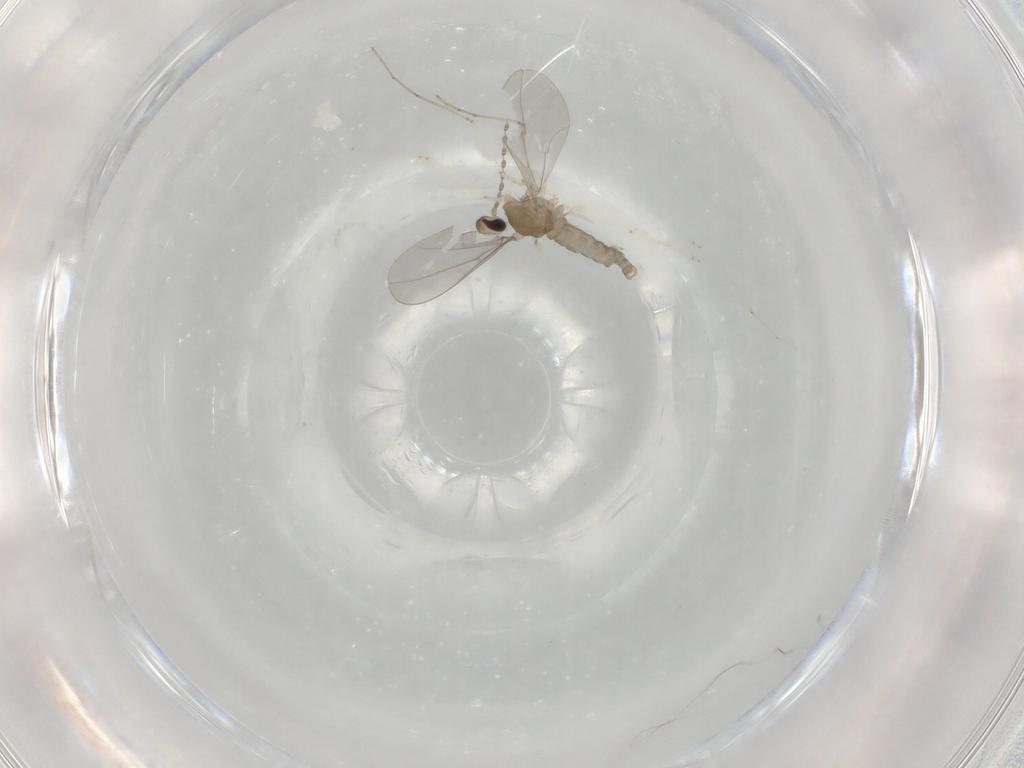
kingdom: Animalia
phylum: Arthropoda
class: Insecta
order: Diptera
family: Cecidomyiidae
